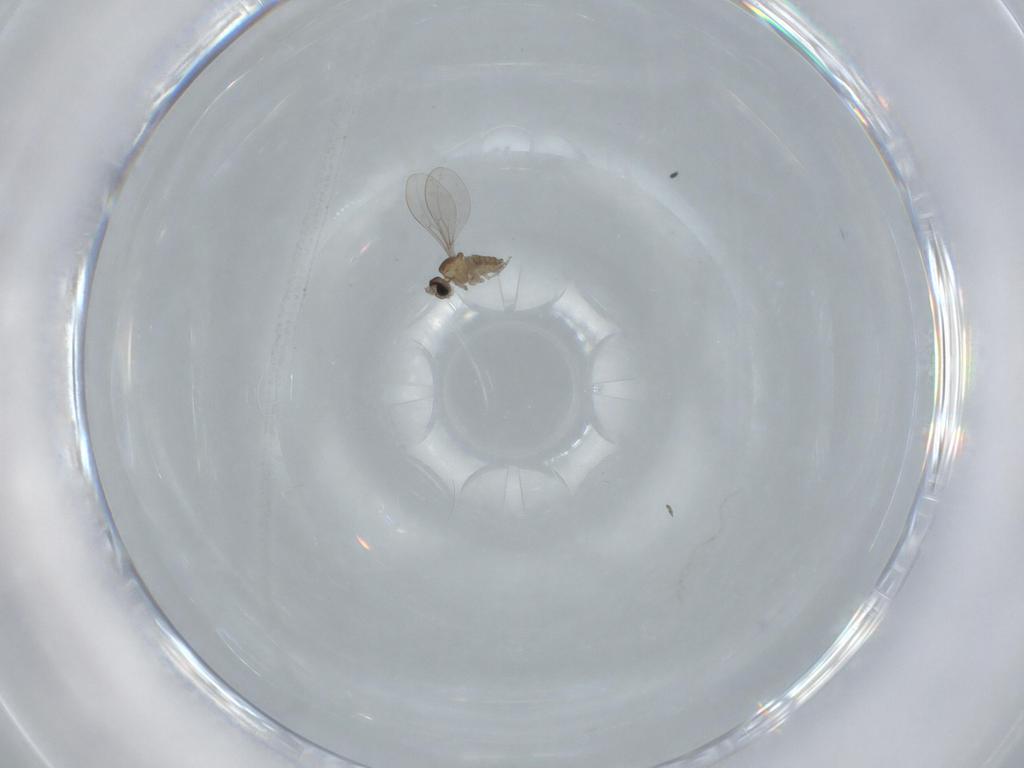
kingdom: Animalia
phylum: Arthropoda
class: Insecta
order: Diptera
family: Cecidomyiidae
